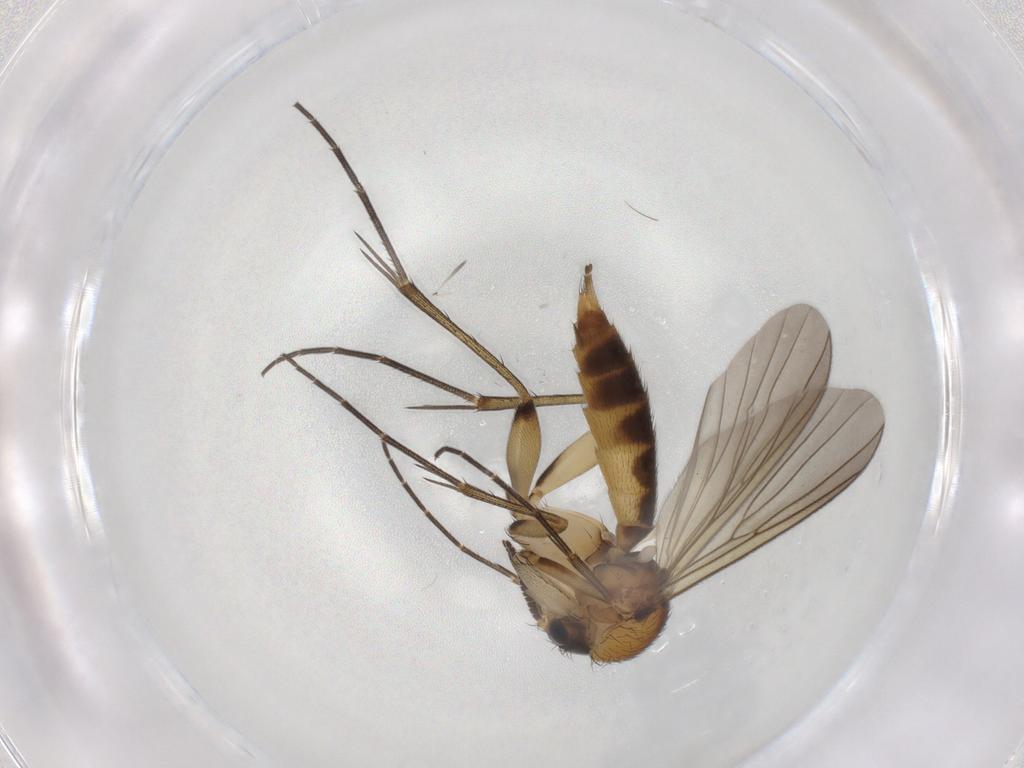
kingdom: Animalia
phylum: Arthropoda
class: Insecta
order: Diptera
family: Mycetophilidae
